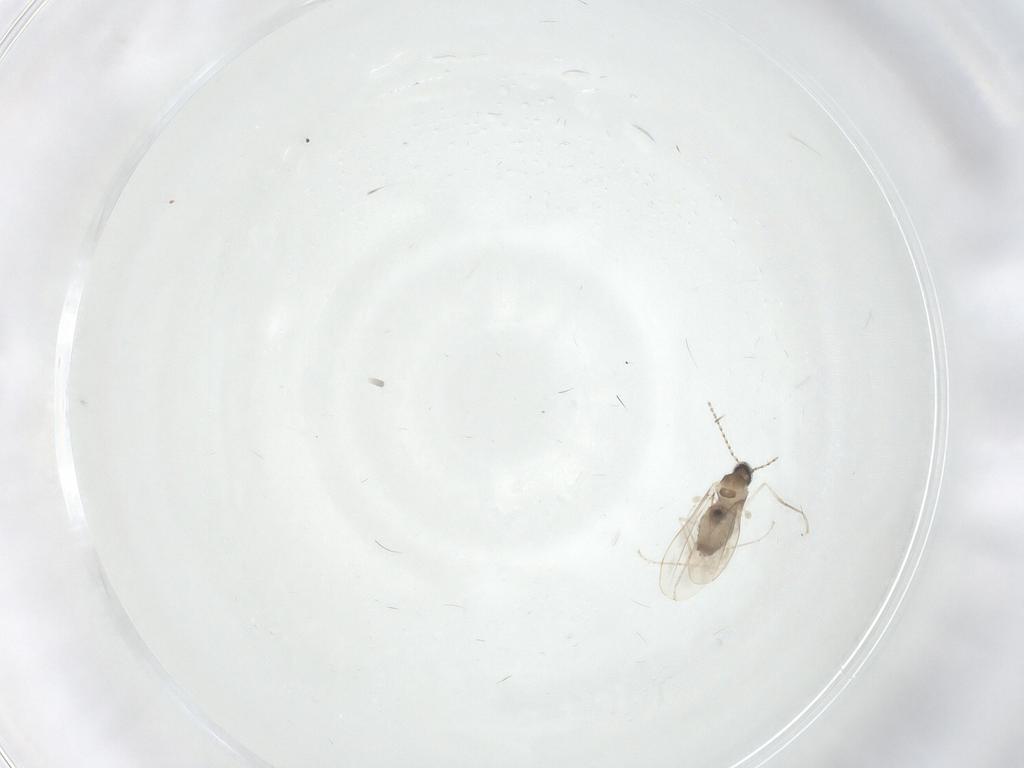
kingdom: Animalia
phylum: Arthropoda
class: Insecta
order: Diptera
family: Cecidomyiidae
